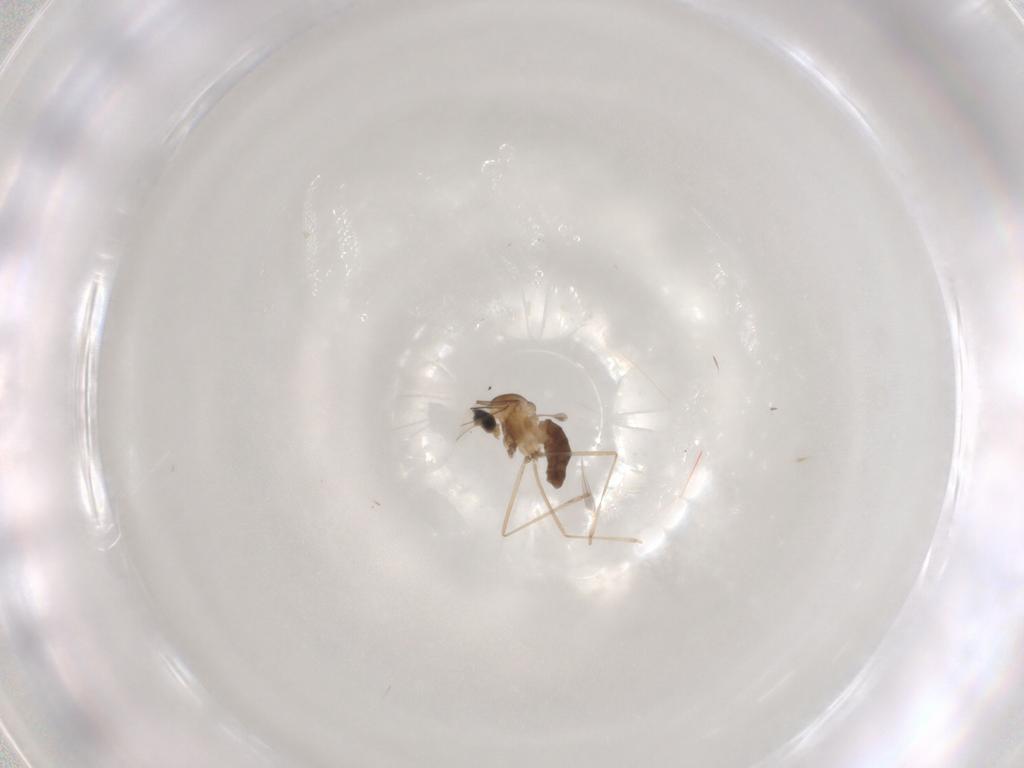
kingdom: Animalia
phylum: Arthropoda
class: Insecta
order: Diptera
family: Cecidomyiidae
